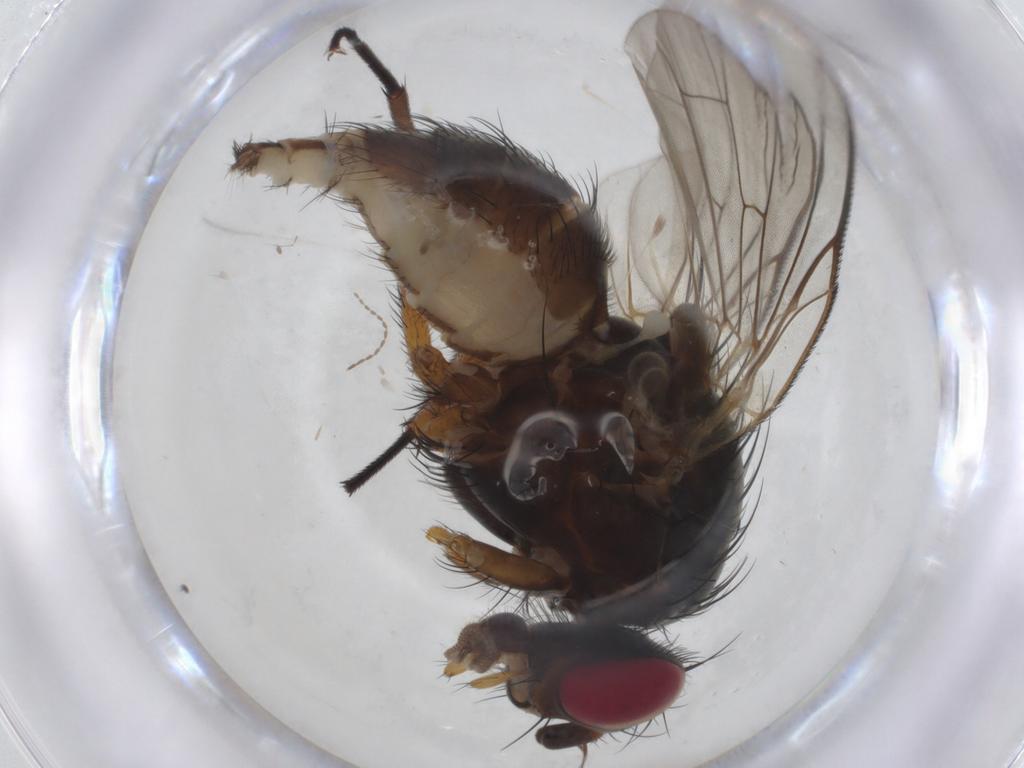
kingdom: Animalia
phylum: Arthropoda
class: Insecta
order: Diptera
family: Anthomyiidae
